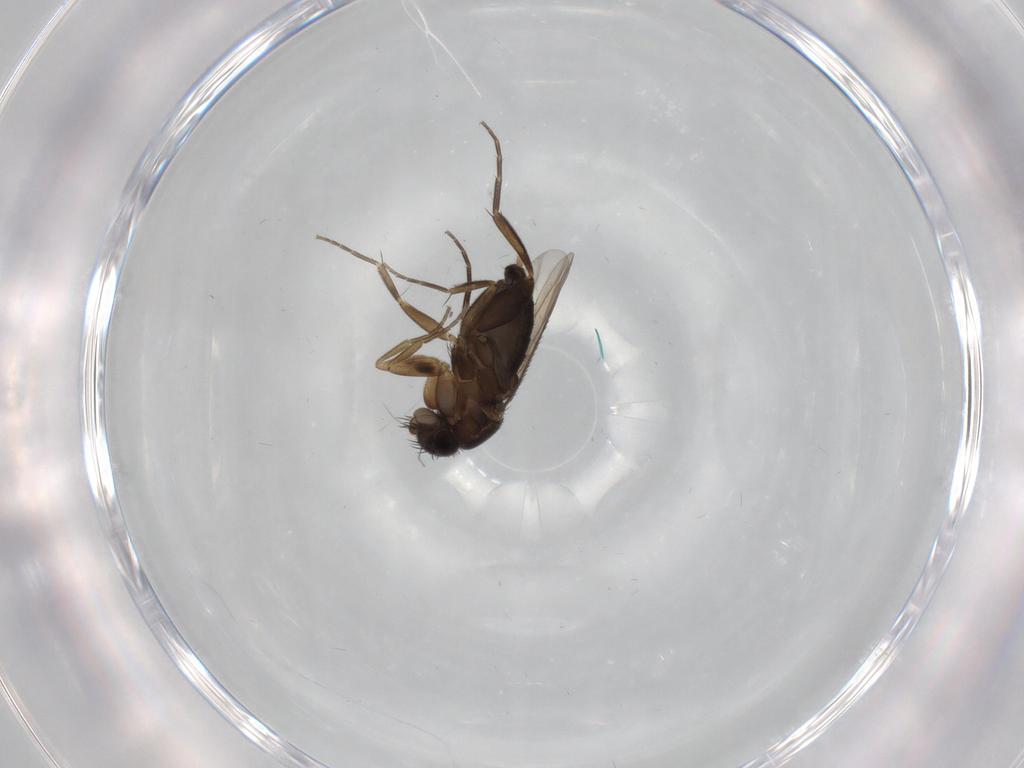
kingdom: Animalia
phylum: Arthropoda
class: Insecta
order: Diptera
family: Phoridae
